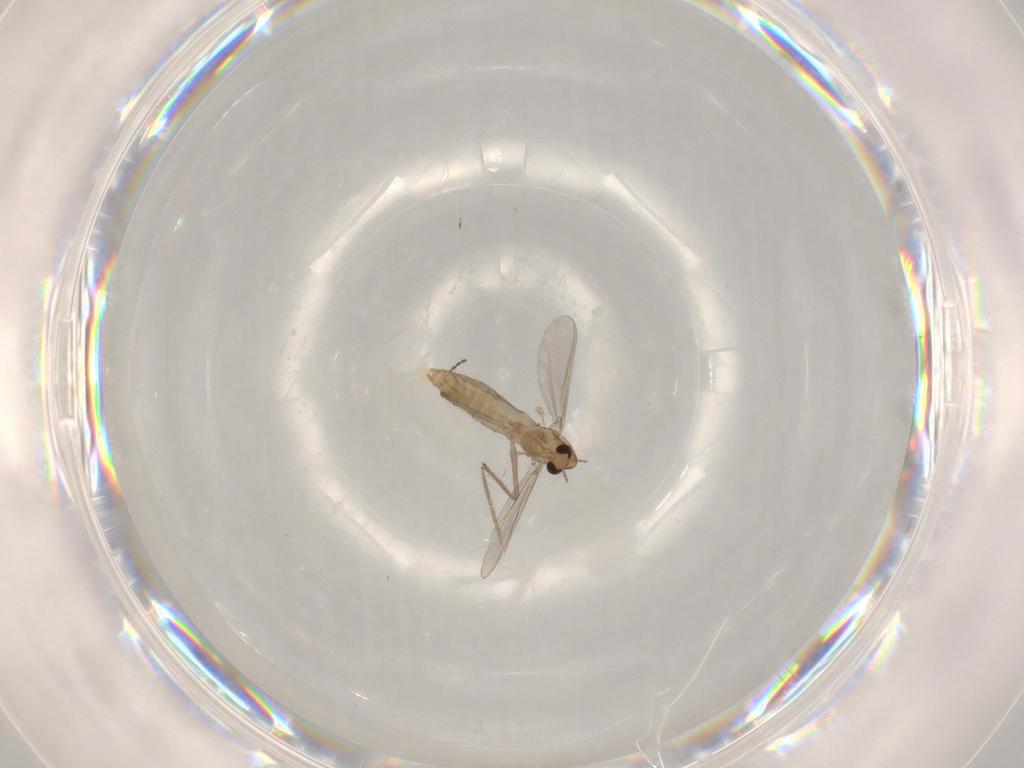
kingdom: Animalia
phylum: Arthropoda
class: Insecta
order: Diptera
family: Chironomidae
